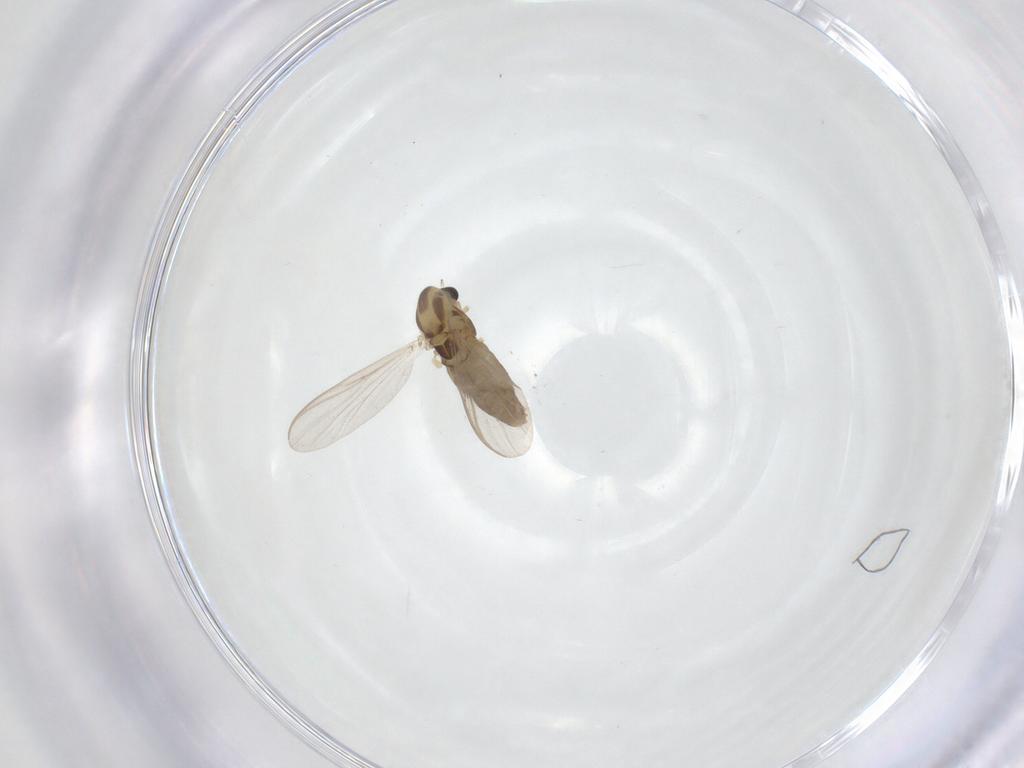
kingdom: Animalia
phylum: Arthropoda
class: Insecta
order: Diptera
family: Chironomidae
